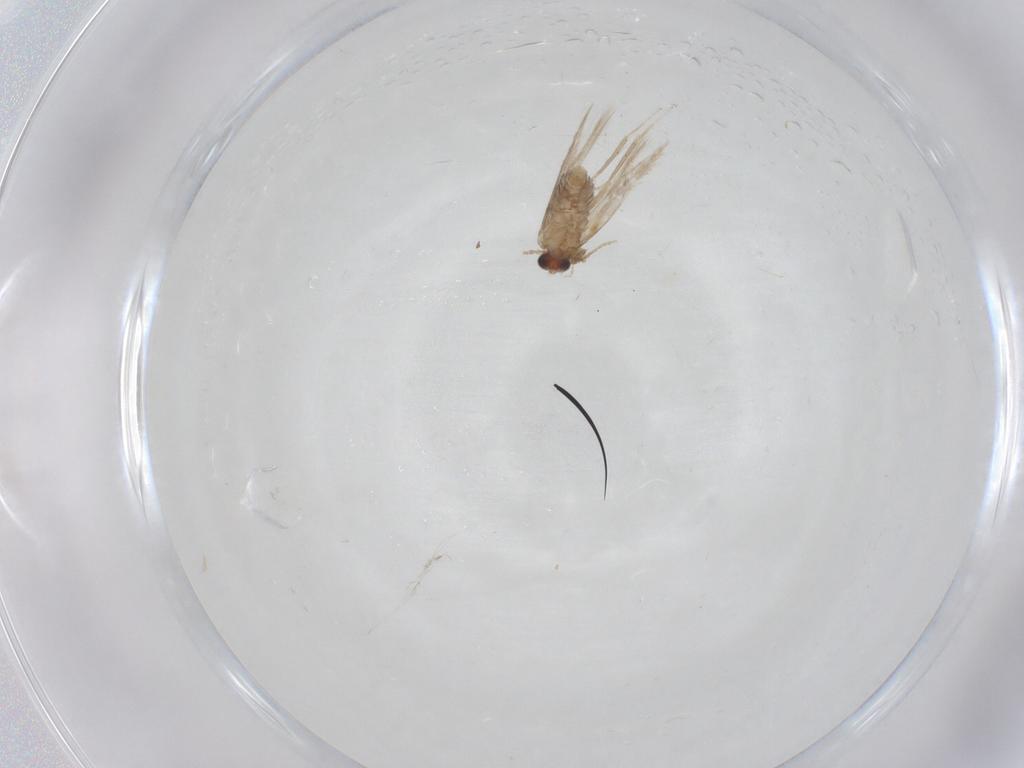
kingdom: Animalia
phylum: Arthropoda
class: Insecta
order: Lepidoptera
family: Nepticulidae
